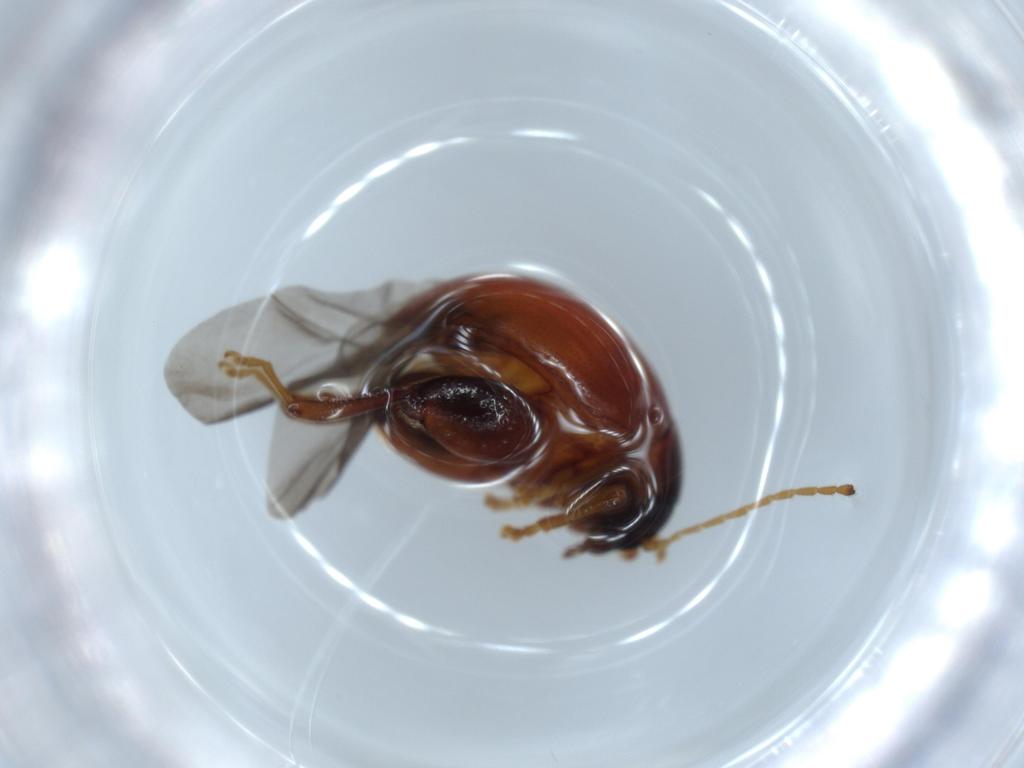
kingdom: Animalia
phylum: Arthropoda
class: Insecta
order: Coleoptera
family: Chrysomelidae
